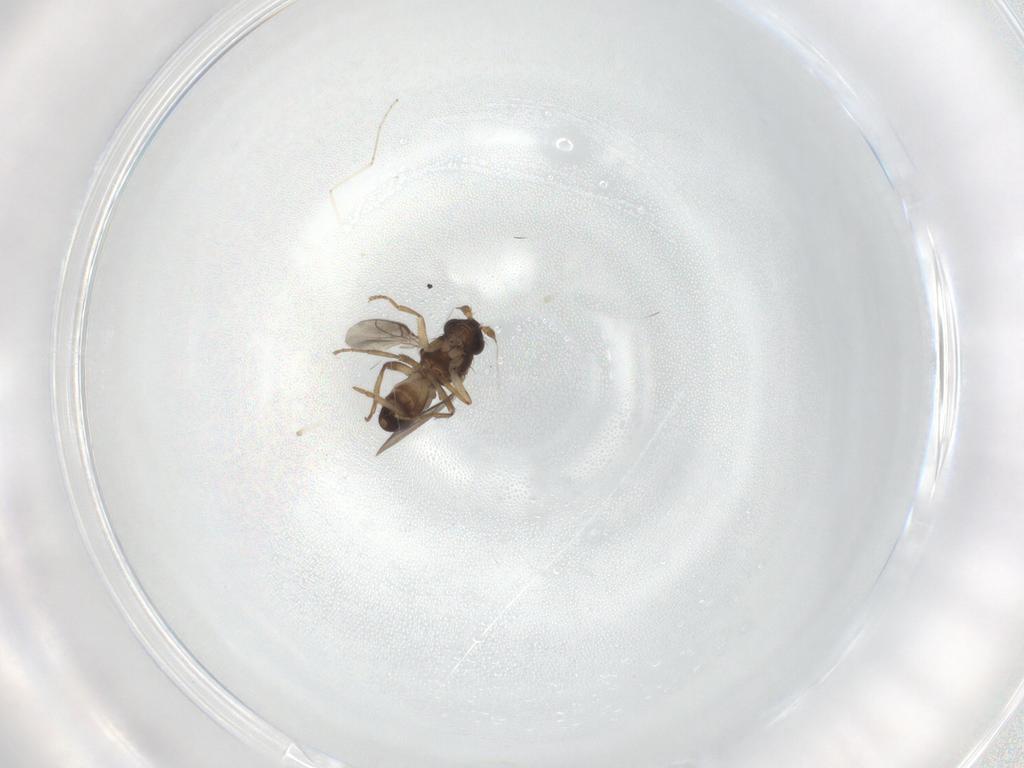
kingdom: Animalia
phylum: Arthropoda
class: Insecta
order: Diptera
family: Sphaeroceridae
